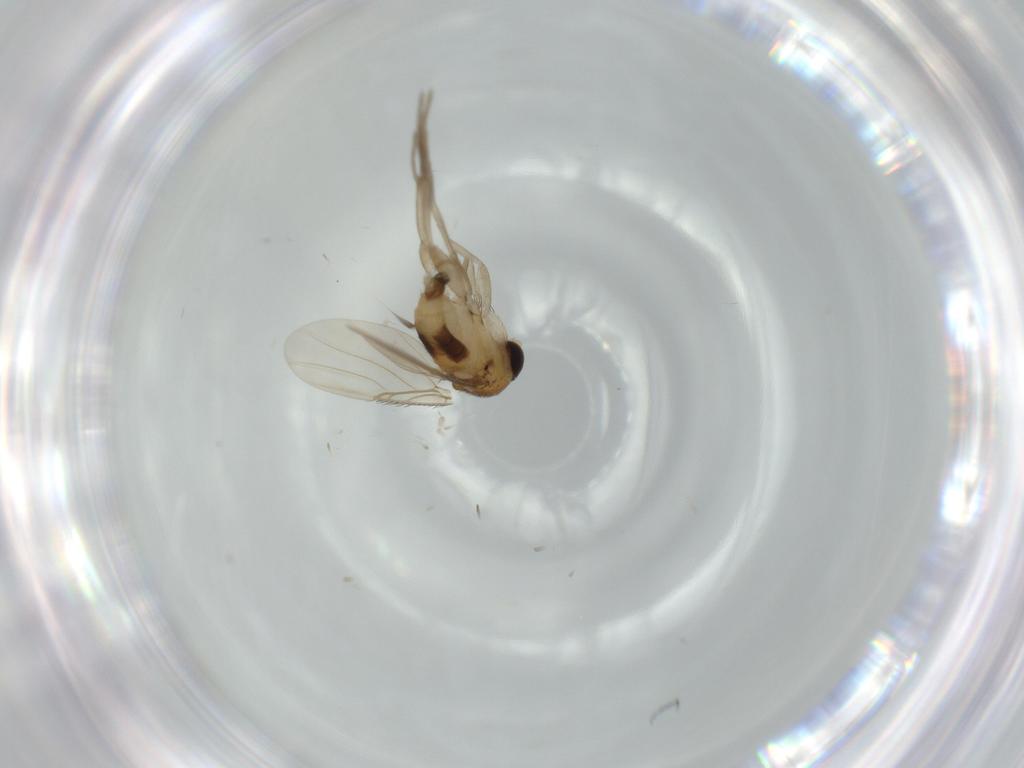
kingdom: Animalia
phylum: Arthropoda
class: Insecta
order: Diptera
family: Phoridae
